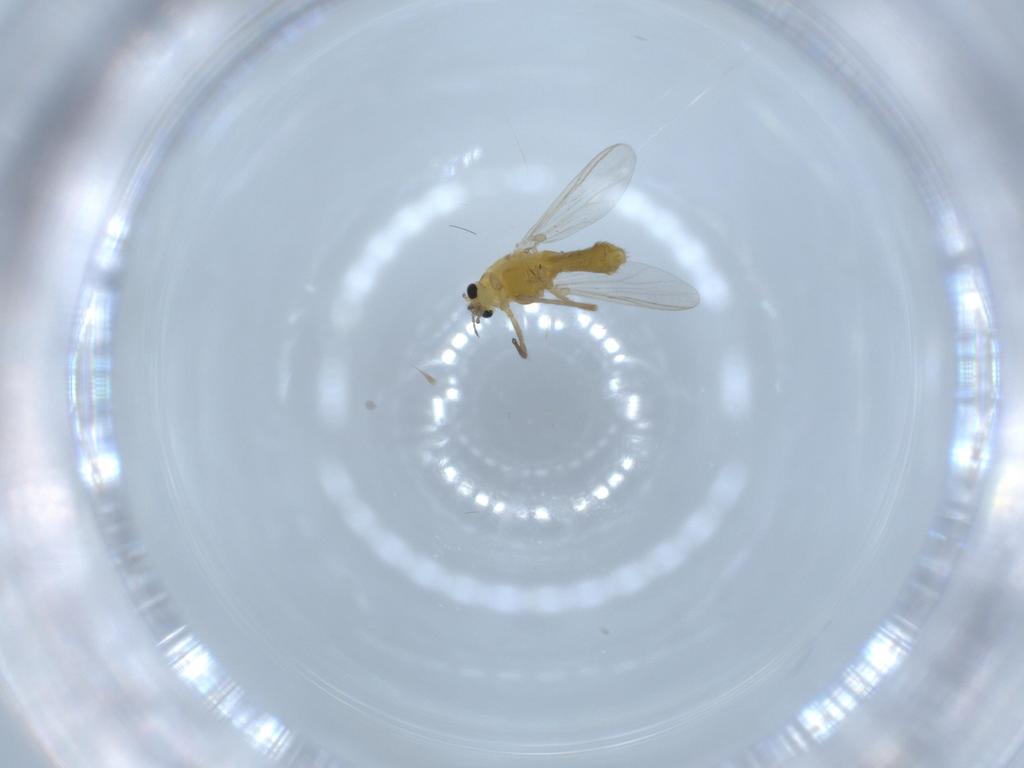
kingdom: Animalia
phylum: Arthropoda
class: Insecta
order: Diptera
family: Chironomidae
